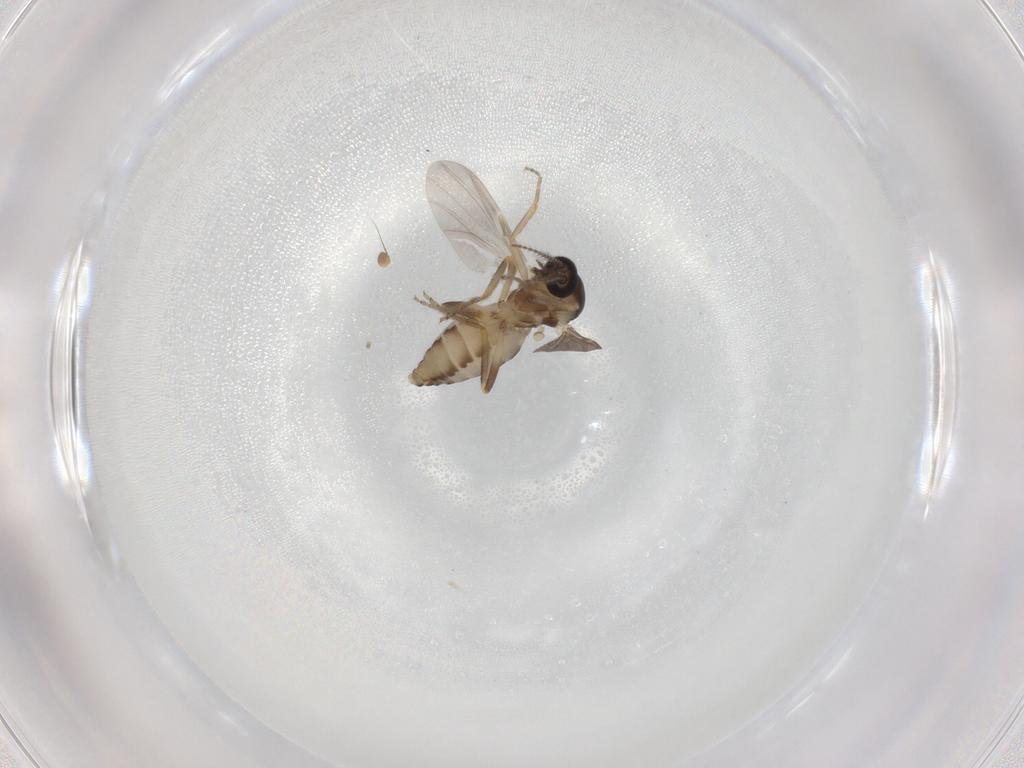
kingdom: Animalia
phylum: Arthropoda
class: Insecta
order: Diptera
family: Ceratopogonidae
